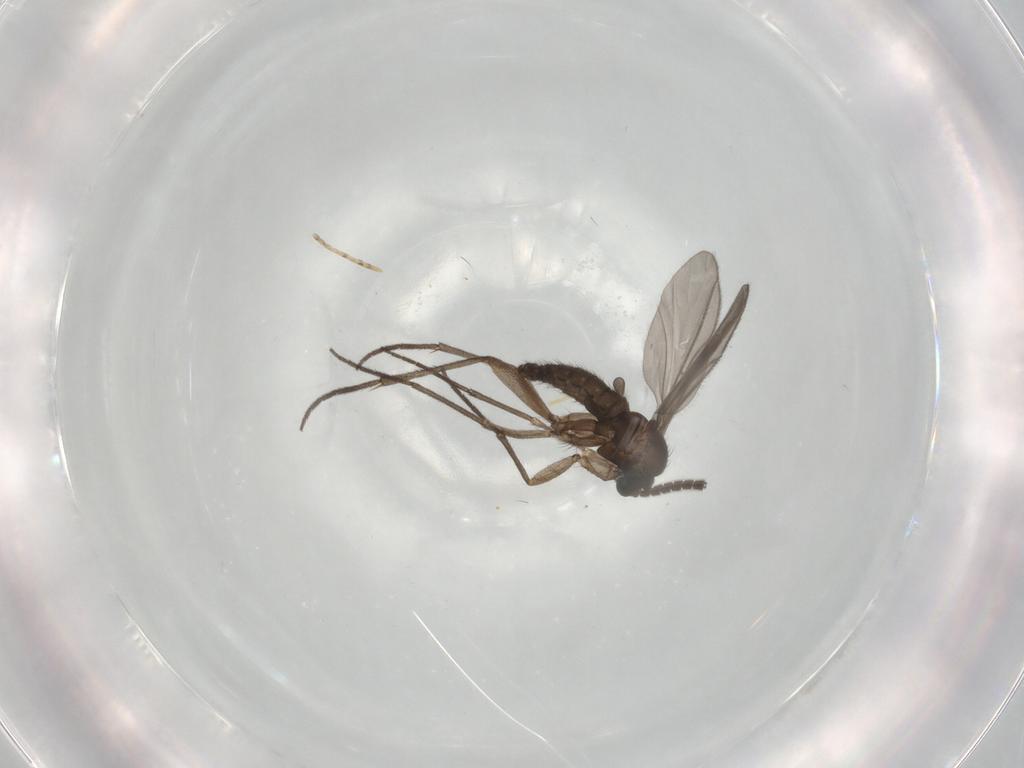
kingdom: Animalia
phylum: Arthropoda
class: Insecta
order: Diptera
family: Sciaridae
